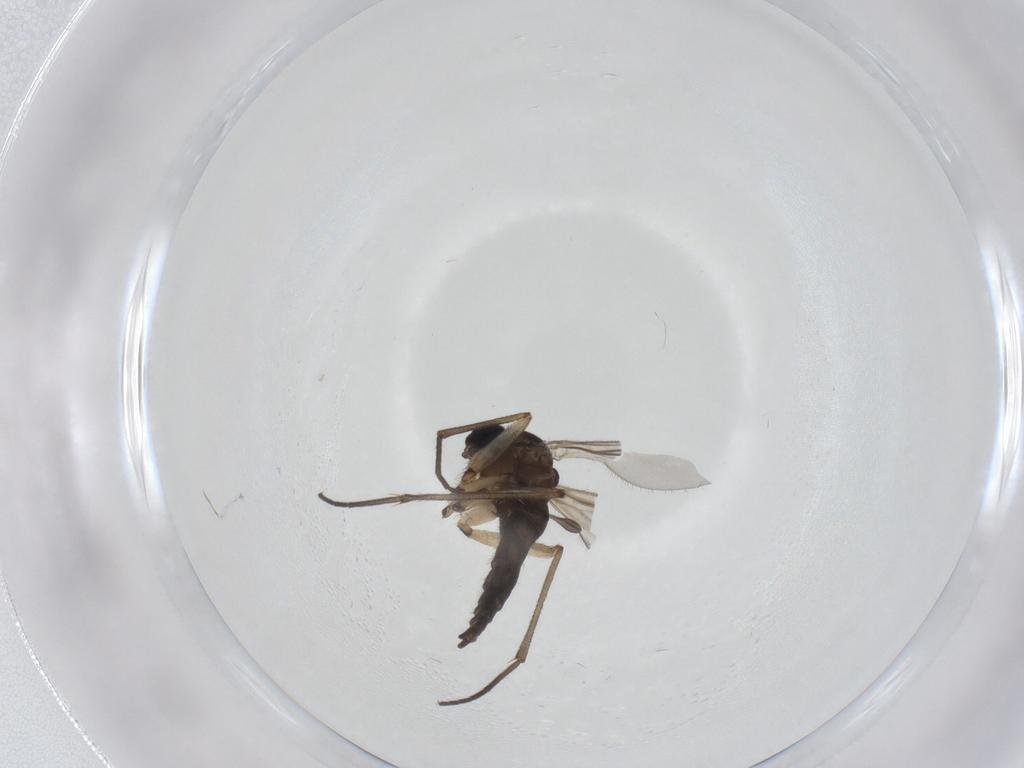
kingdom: Animalia
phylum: Arthropoda
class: Insecta
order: Diptera
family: Sciaridae
